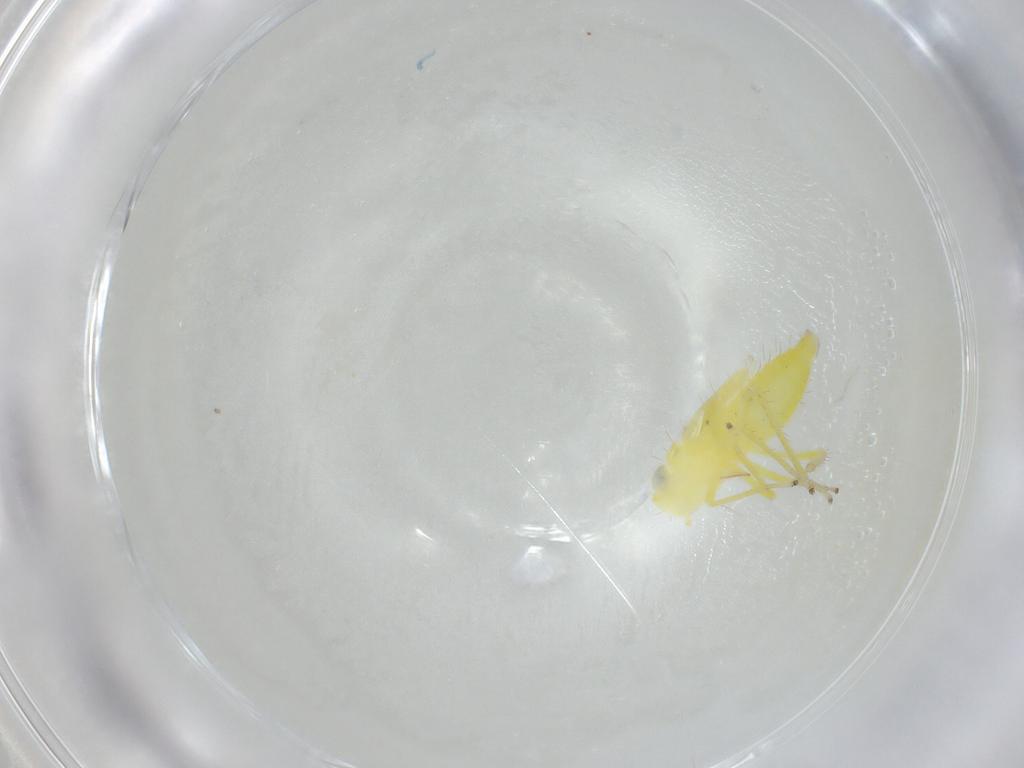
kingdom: Animalia
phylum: Arthropoda
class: Insecta
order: Hemiptera
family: Cicadellidae
